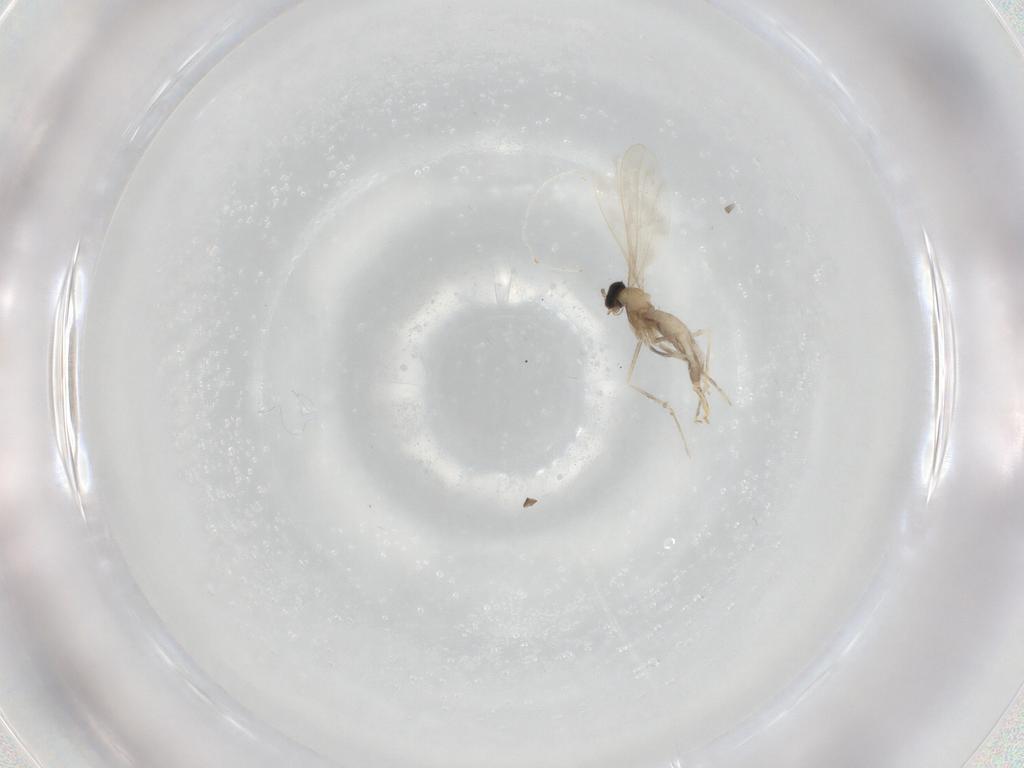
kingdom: Animalia
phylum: Arthropoda
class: Insecta
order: Diptera
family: Cecidomyiidae
